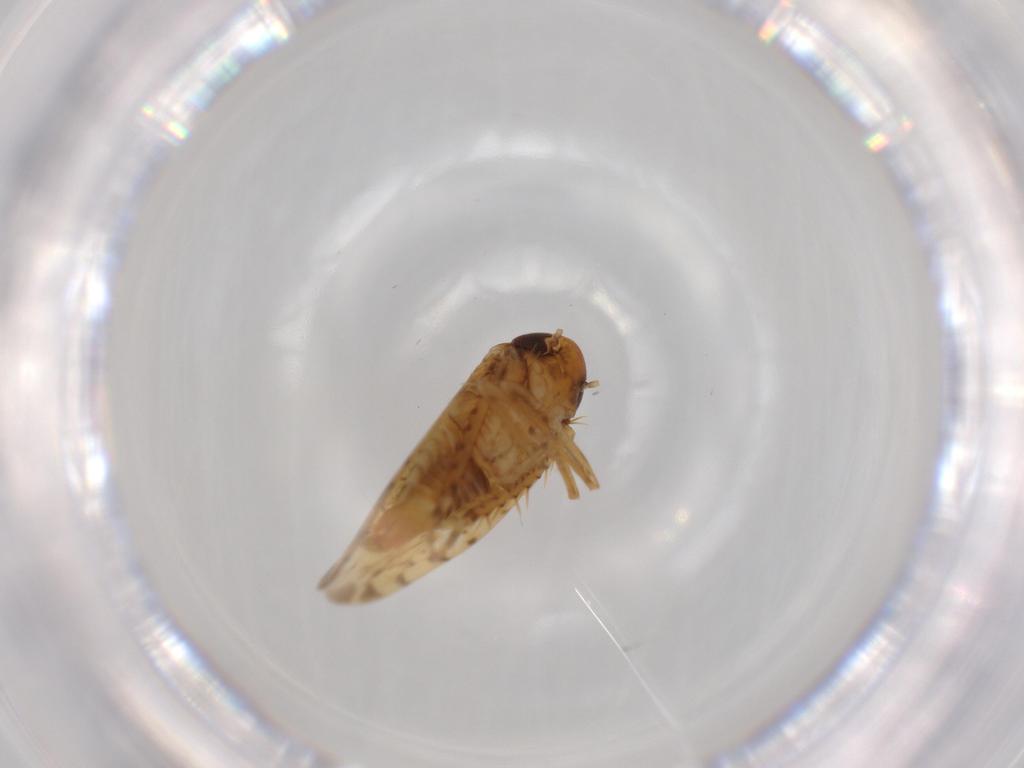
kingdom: Animalia
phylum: Arthropoda
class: Insecta
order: Hemiptera
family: Cicadellidae
